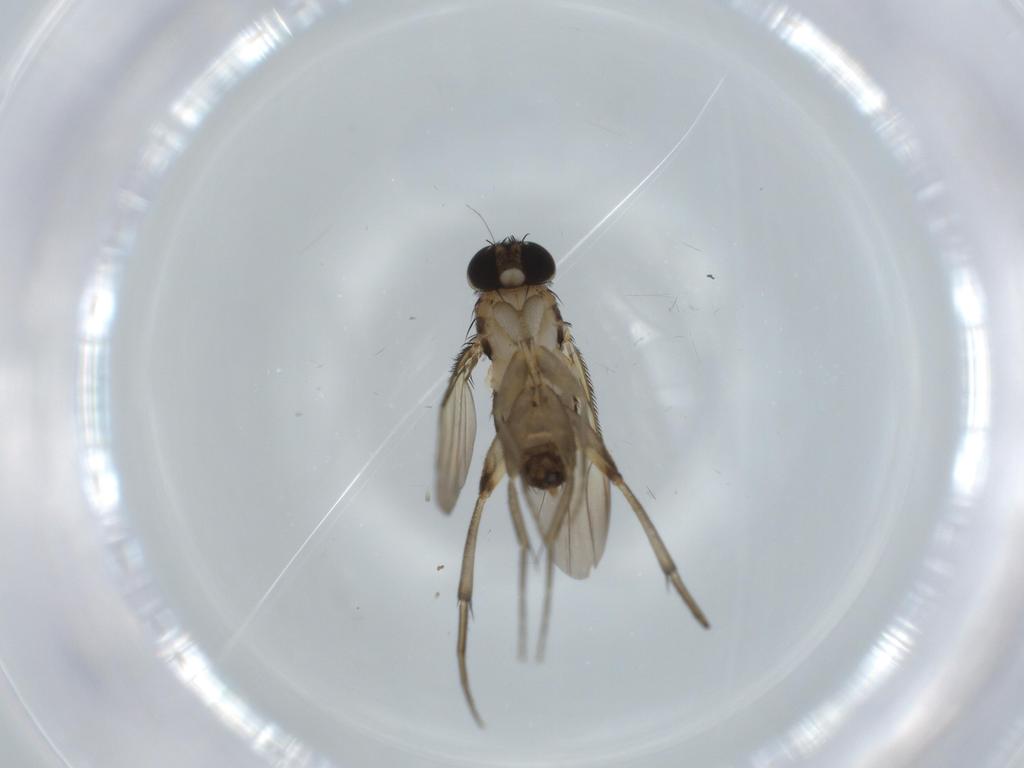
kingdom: Animalia
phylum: Arthropoda
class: Insecta
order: Diptera
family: Phoridae
